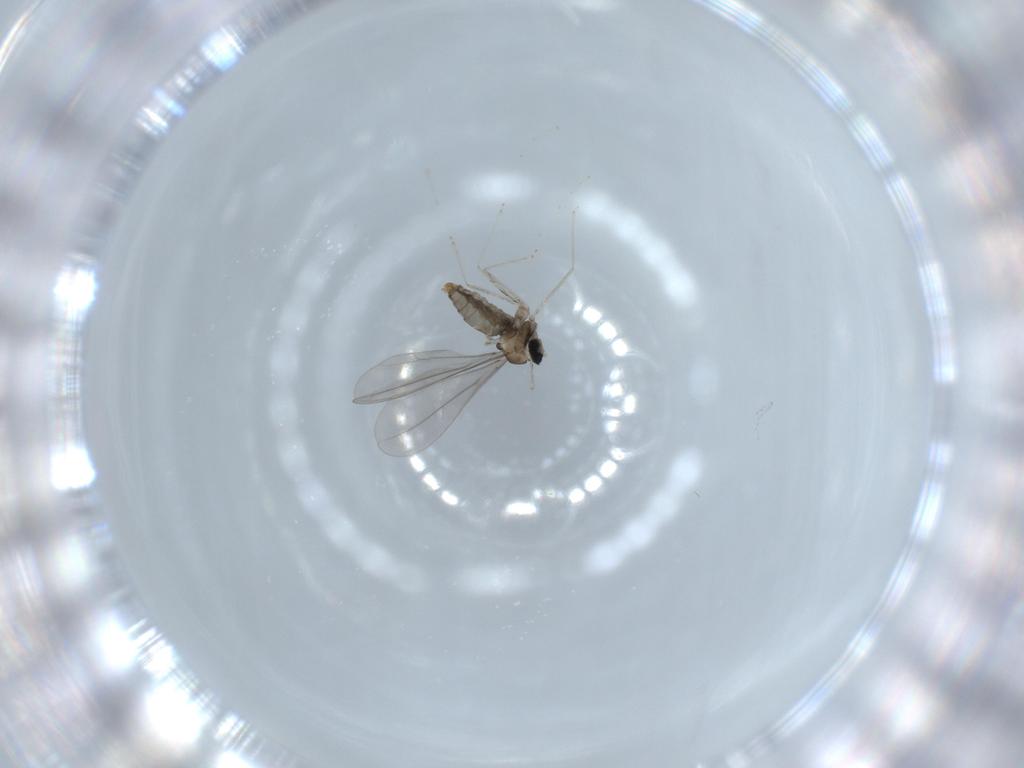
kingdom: Animalia
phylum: Arthropoda
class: Insecta
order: Diptera
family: Cecidomyiidae
